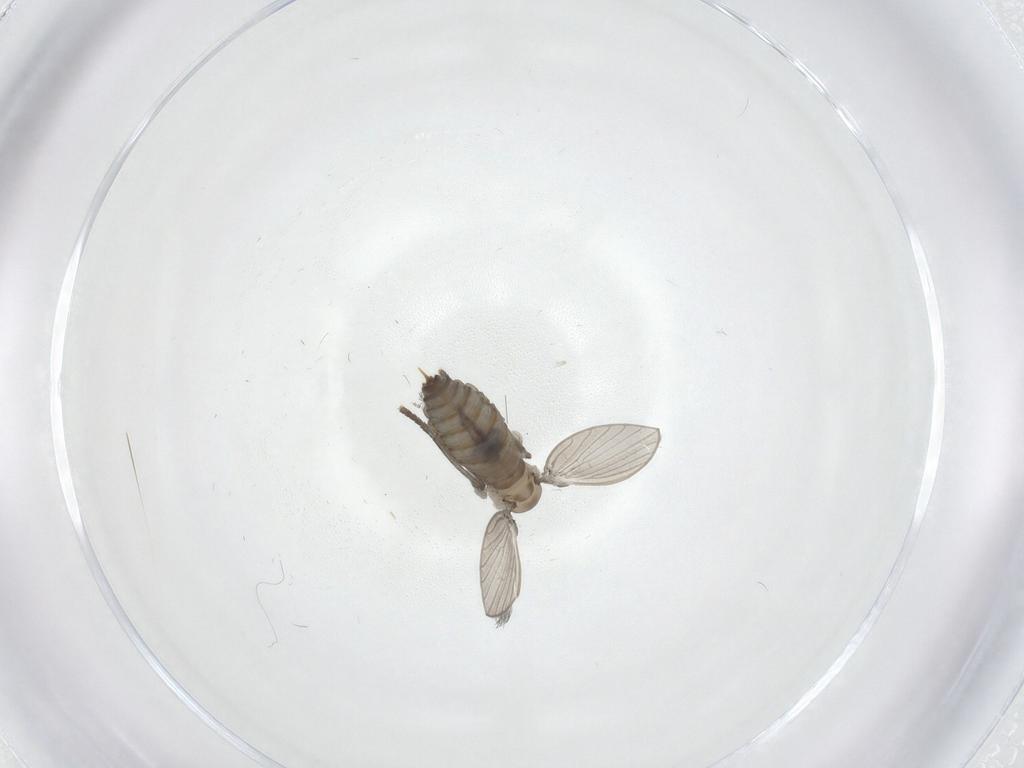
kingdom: Animalia
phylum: Arthropoda
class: Insecta
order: Diptera
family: Psychodidae
